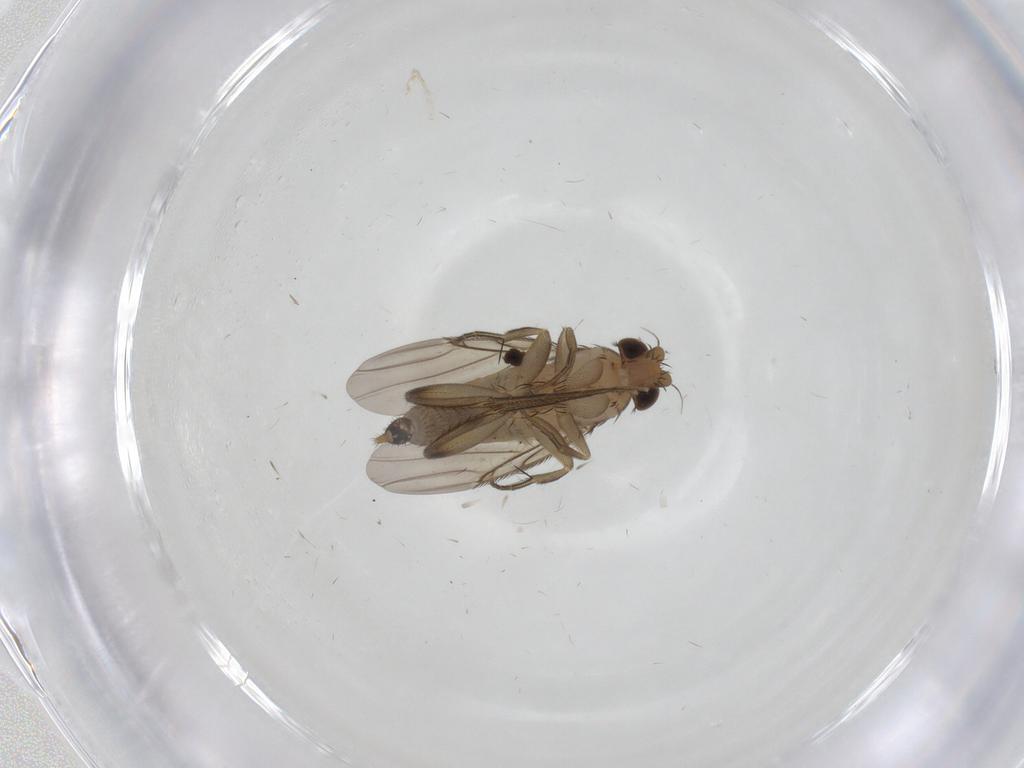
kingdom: Animalia
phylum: Arthropoda
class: Insecta
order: Diptera
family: Phoridae
